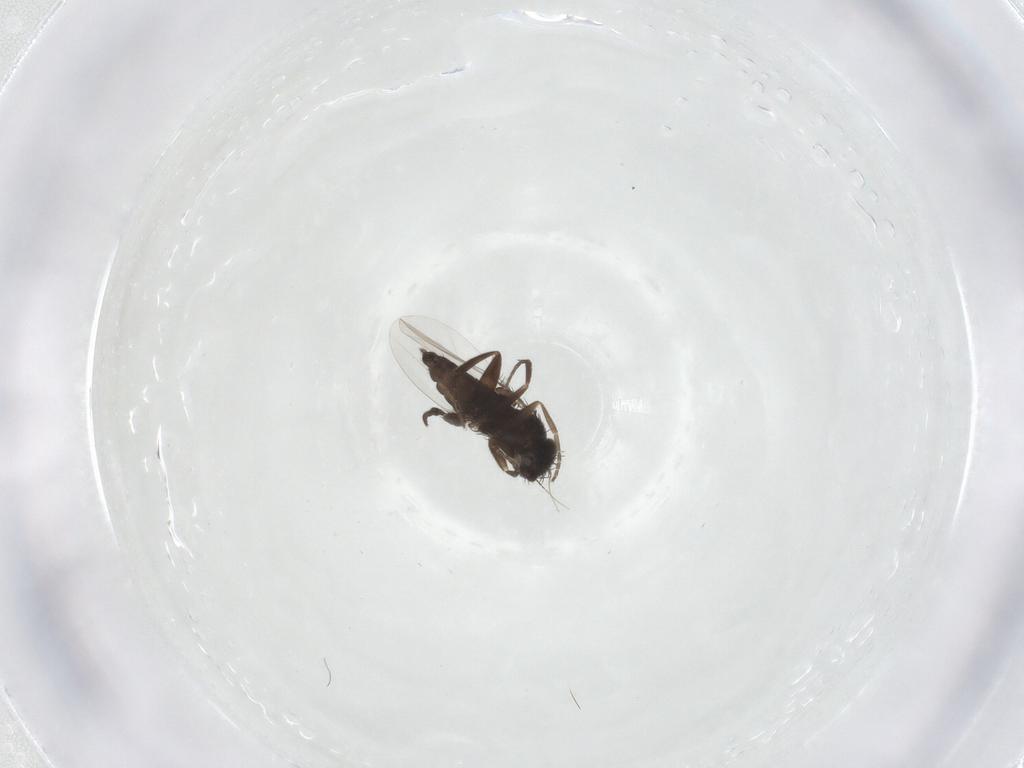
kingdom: Animalia
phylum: Arthropoda
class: Insecta
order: Diptera
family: Phoridae
